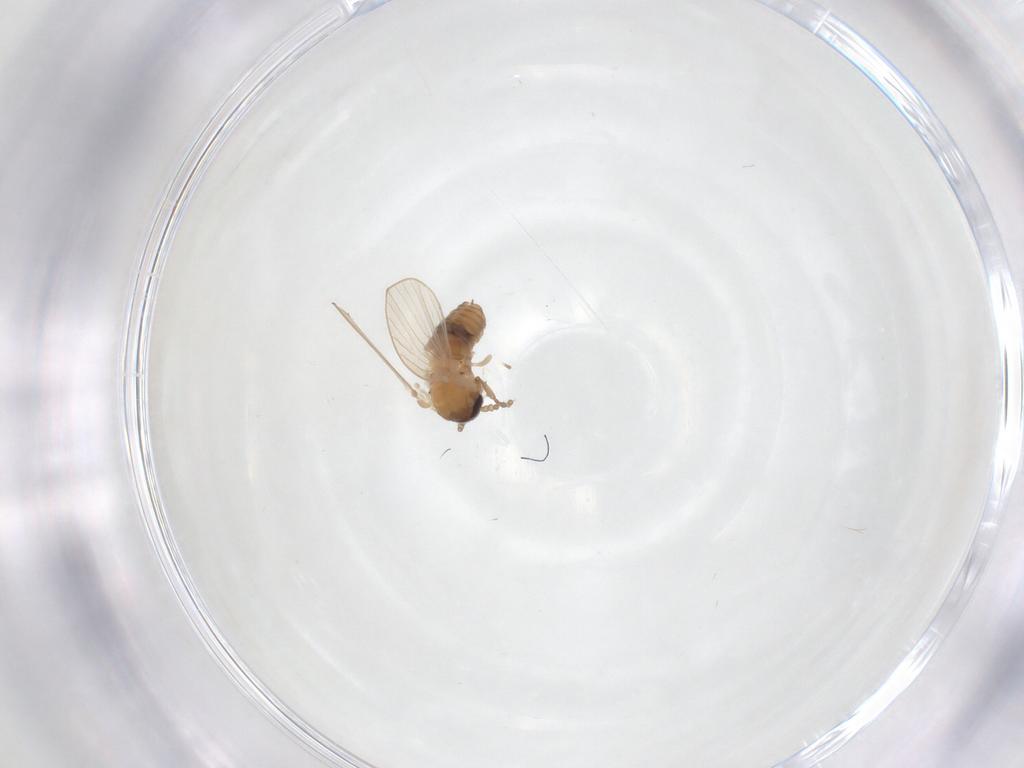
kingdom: Animalia
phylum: Arthropoda
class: Insecta
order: Diptera
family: Psychodidae
